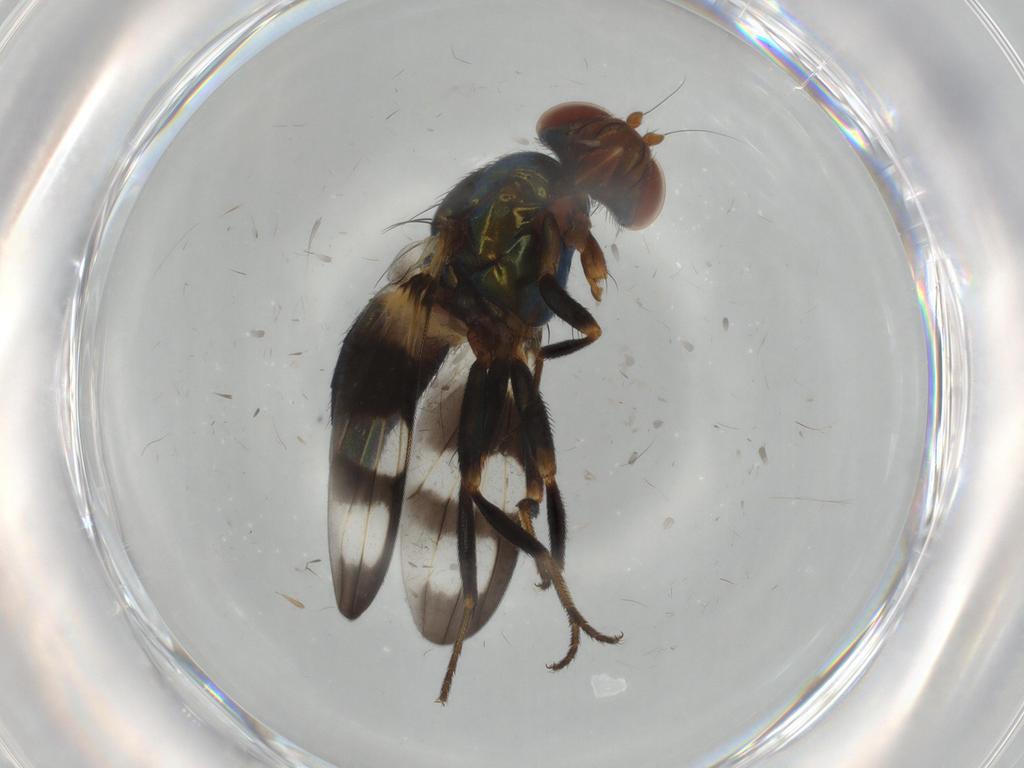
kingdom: Animalia
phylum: Arthropoda
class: Insecta
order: Diptera
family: Ulidiidae
